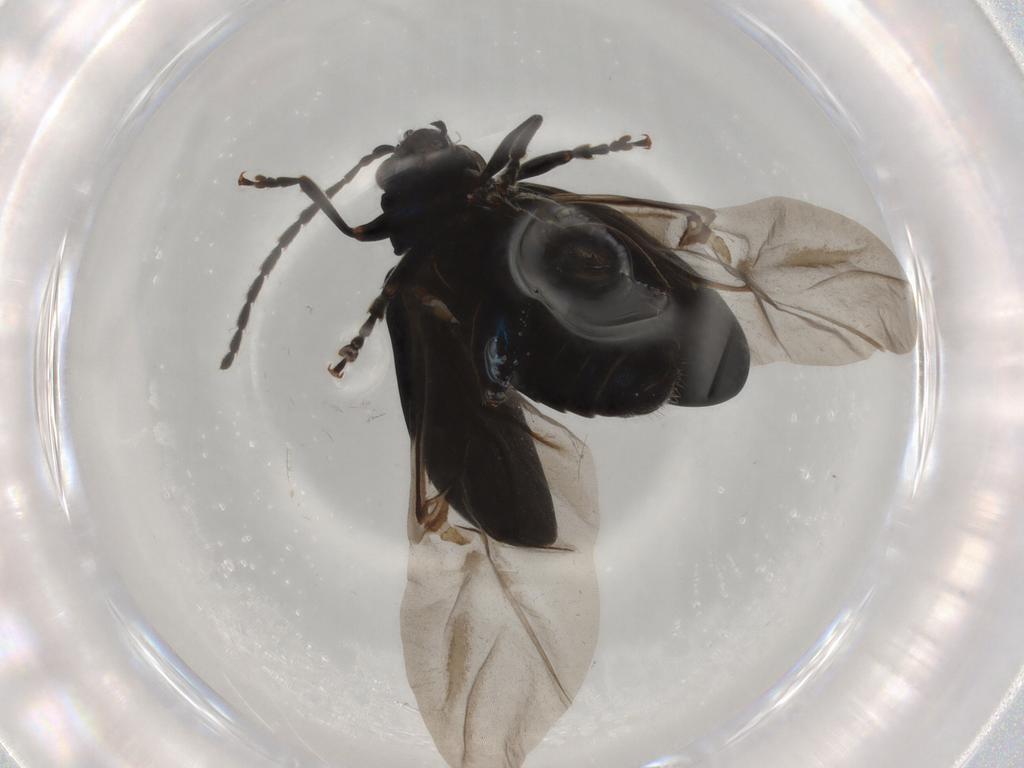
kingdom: Animalia
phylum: Arthropoda
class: Insecta
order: Coleoptera
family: Chrysomelidae
